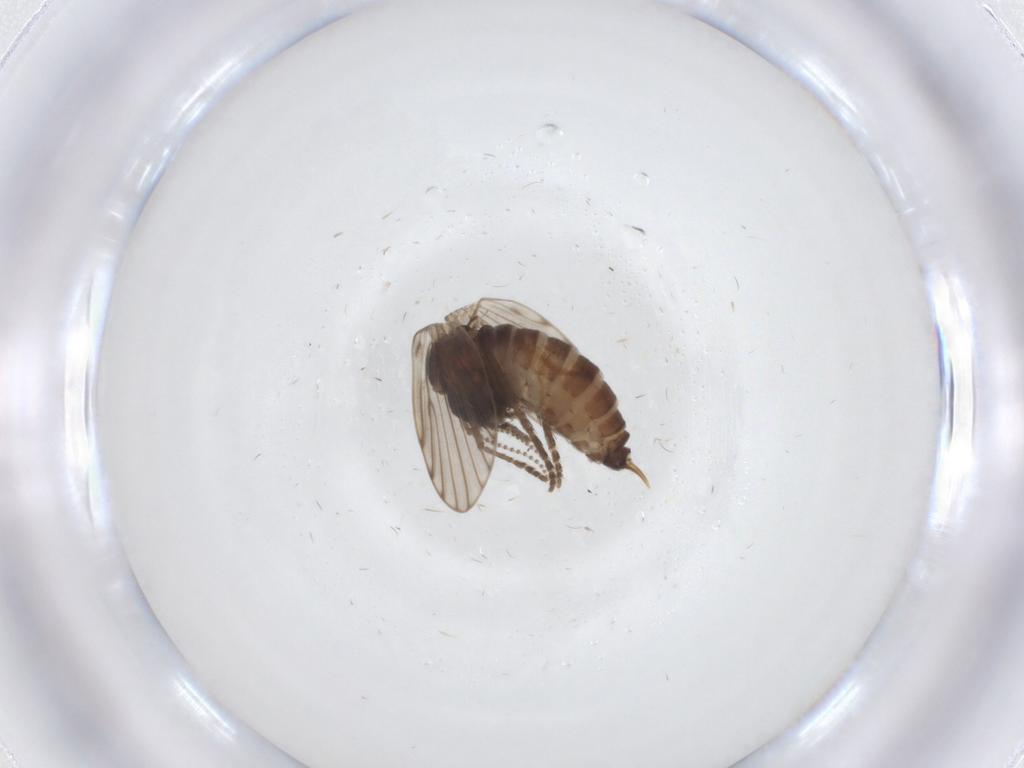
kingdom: Animalia
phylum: Arthropoda
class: Insecta
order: Diptera
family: Psychodidae
